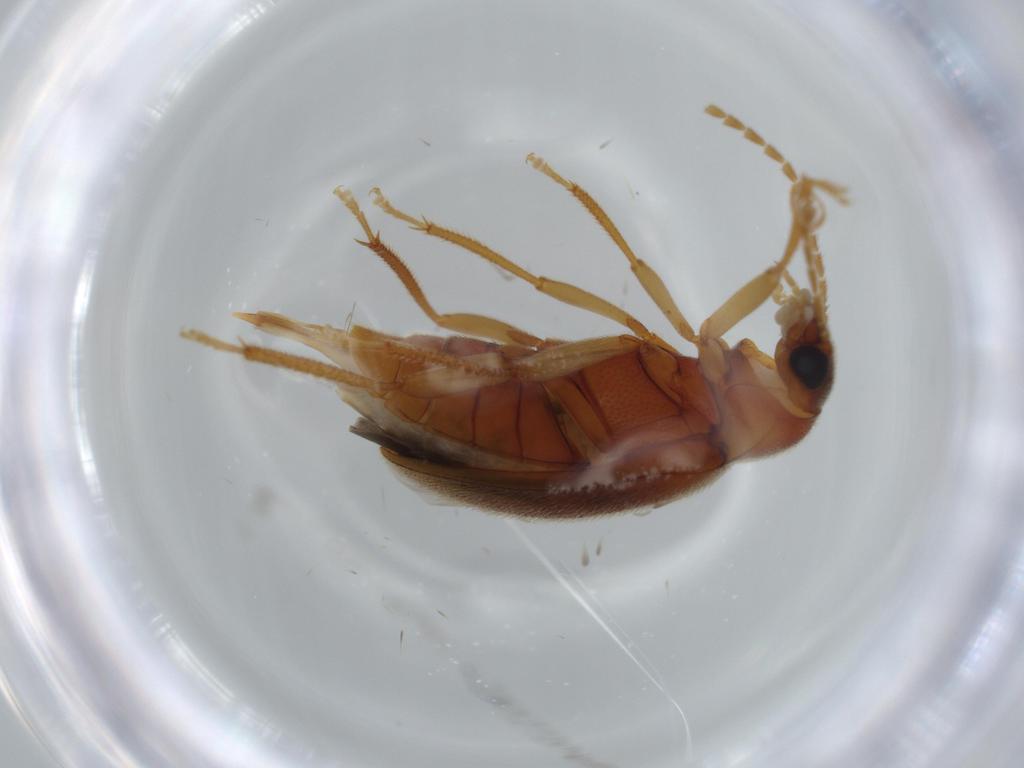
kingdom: Animalia
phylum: Arthropoda
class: Insecta
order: Coleoptera
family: Ptilodactylidae
